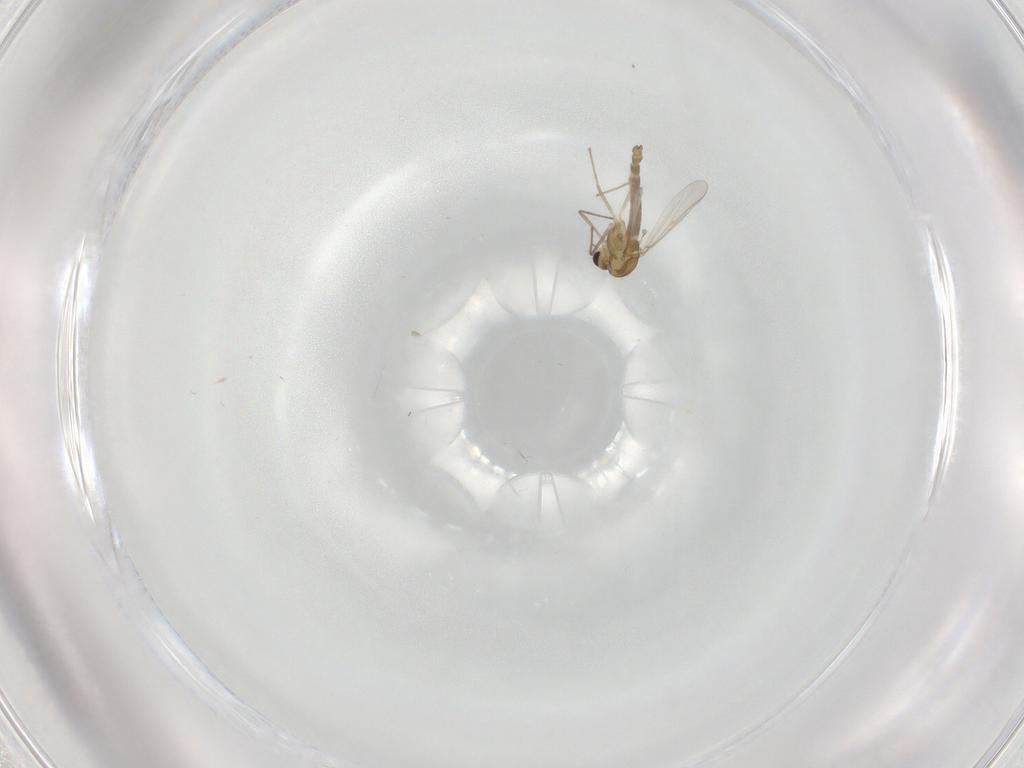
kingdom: Animalia
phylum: Arthropoda
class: Insecta
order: Diptera
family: Chironomidae
